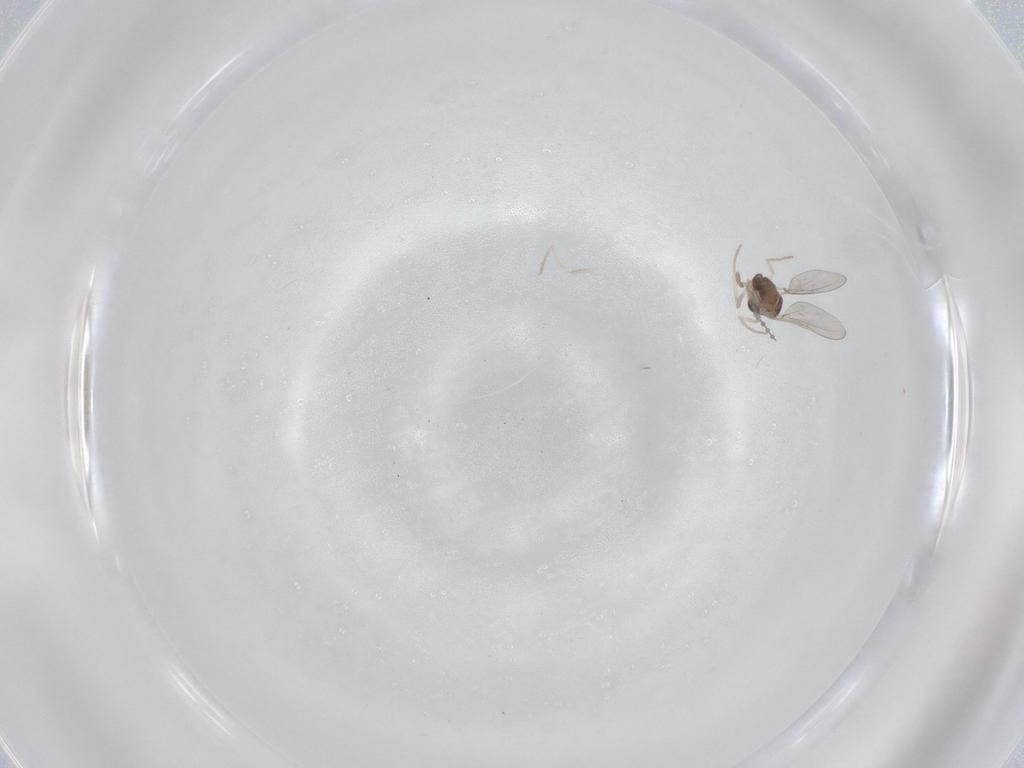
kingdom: Animalia
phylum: Arthropoda
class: Insecta
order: Diptera
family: Cecidomyiidae
